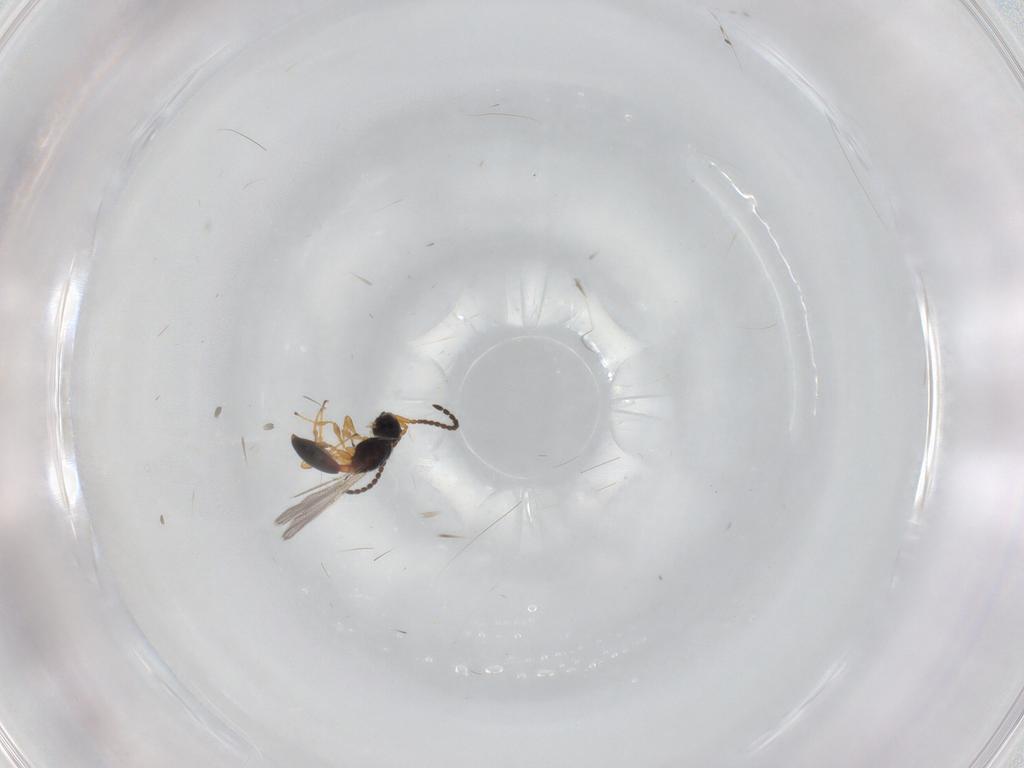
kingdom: Animalia
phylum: Arthropoda
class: Insecta
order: Hymenoptera
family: Diapriidae
